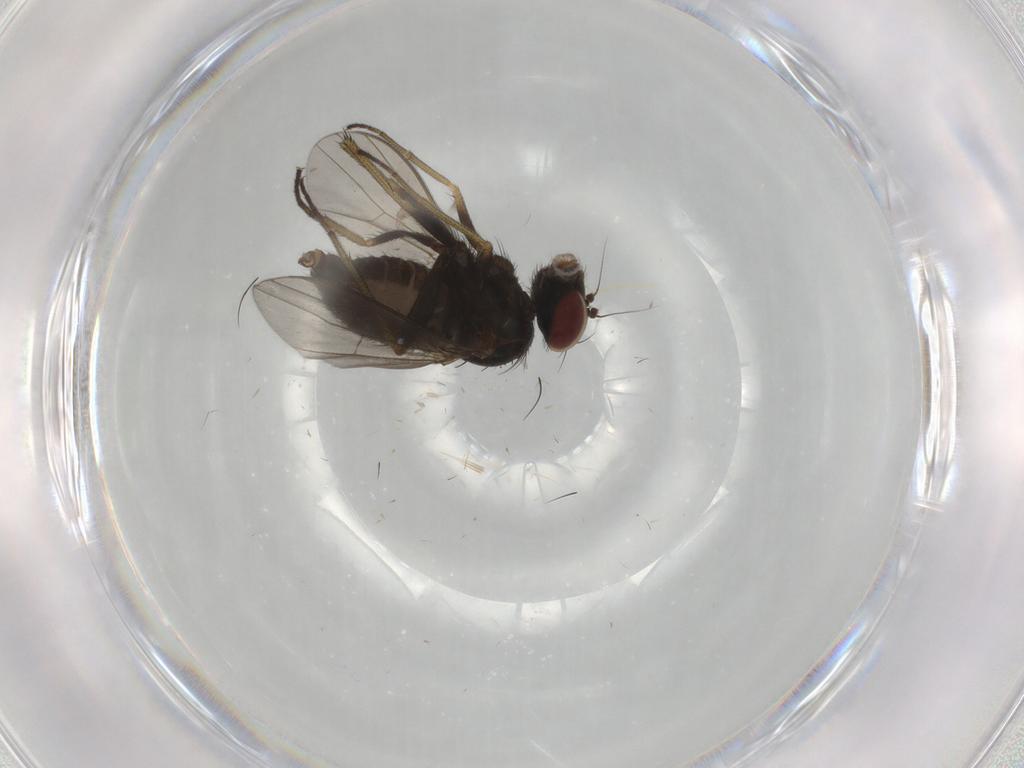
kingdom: Animalia
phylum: Arthropoda
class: Insecta
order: Diptera
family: Dolichopodidae
